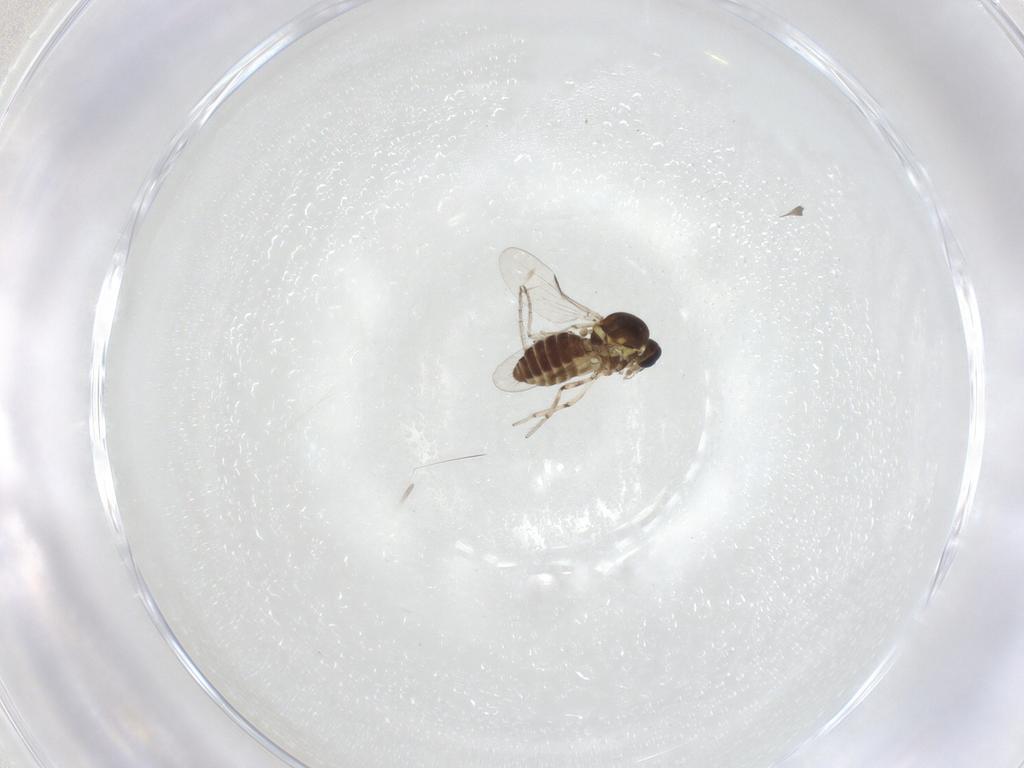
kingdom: Animalia
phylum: Arthropoda
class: Insecta
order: Diptera
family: Ceratopogonidae
